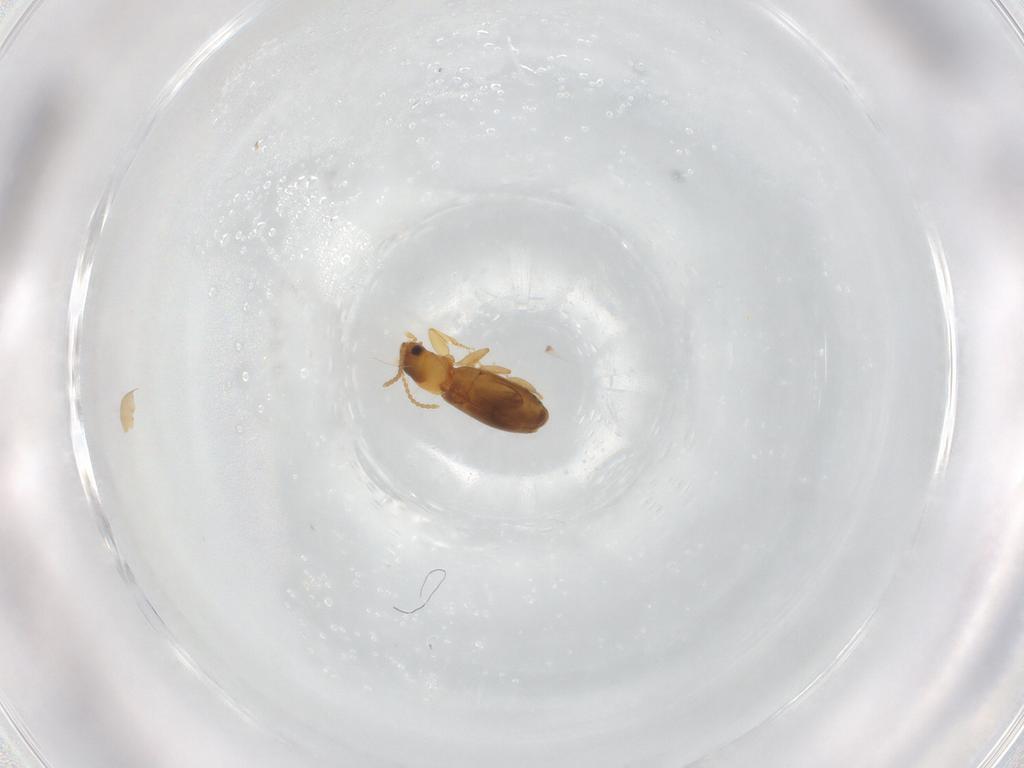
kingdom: Animalia
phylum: Arthropoda
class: Insecta
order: Coleoptera
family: Carabidae
